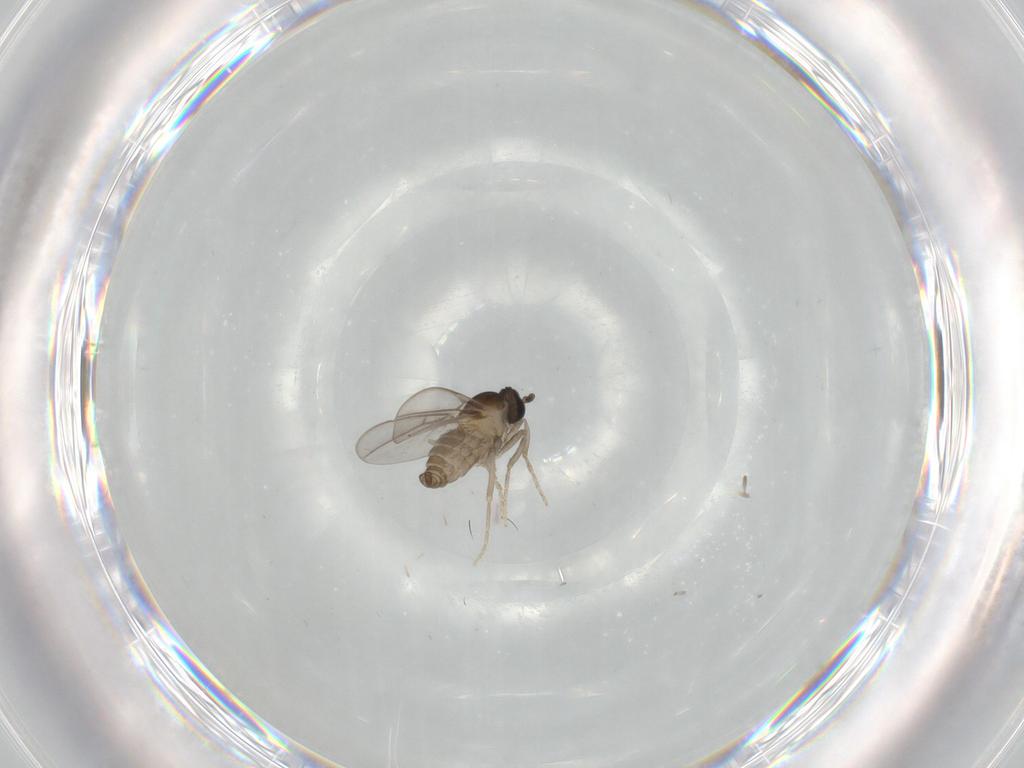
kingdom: Animalia
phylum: Arthropoda
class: Insecta
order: Diptera
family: Cecidomyiidae
